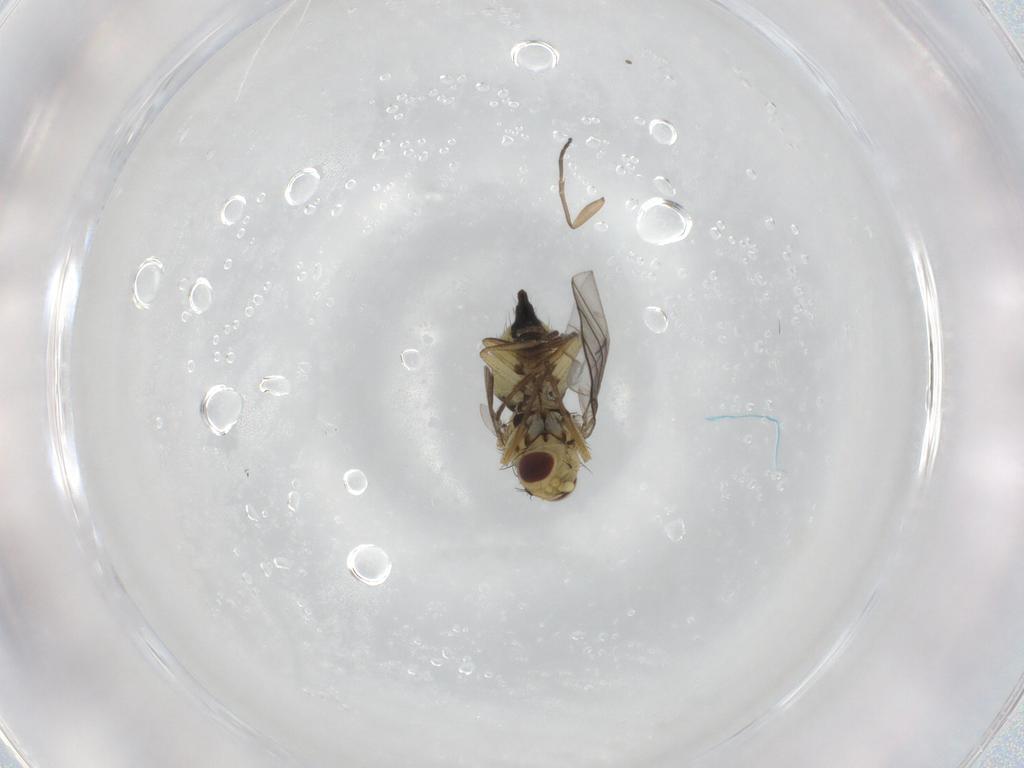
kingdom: Animalia
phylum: Arthropoda
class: Insecta
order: Diptera
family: Agromyzidae
